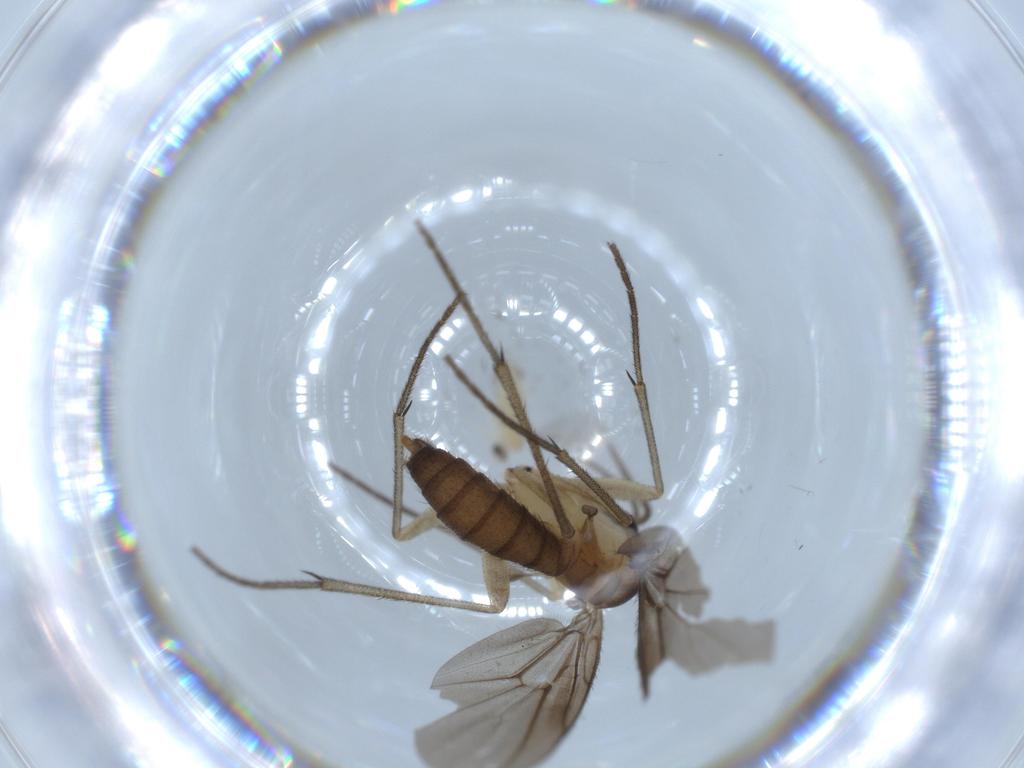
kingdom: Animalia
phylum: Arthropoda
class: Insecta
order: Diptera
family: Cecidomyiidae
